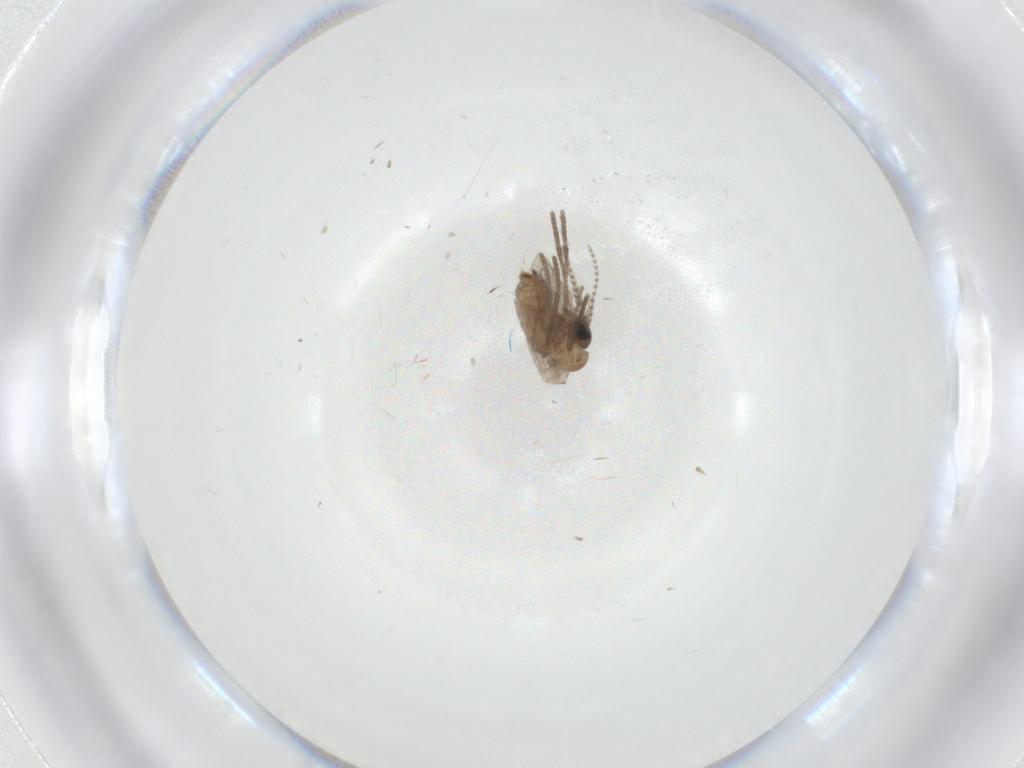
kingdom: Animalia
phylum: Arthropoda
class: Insecta
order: Diptera
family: Psychodidae
